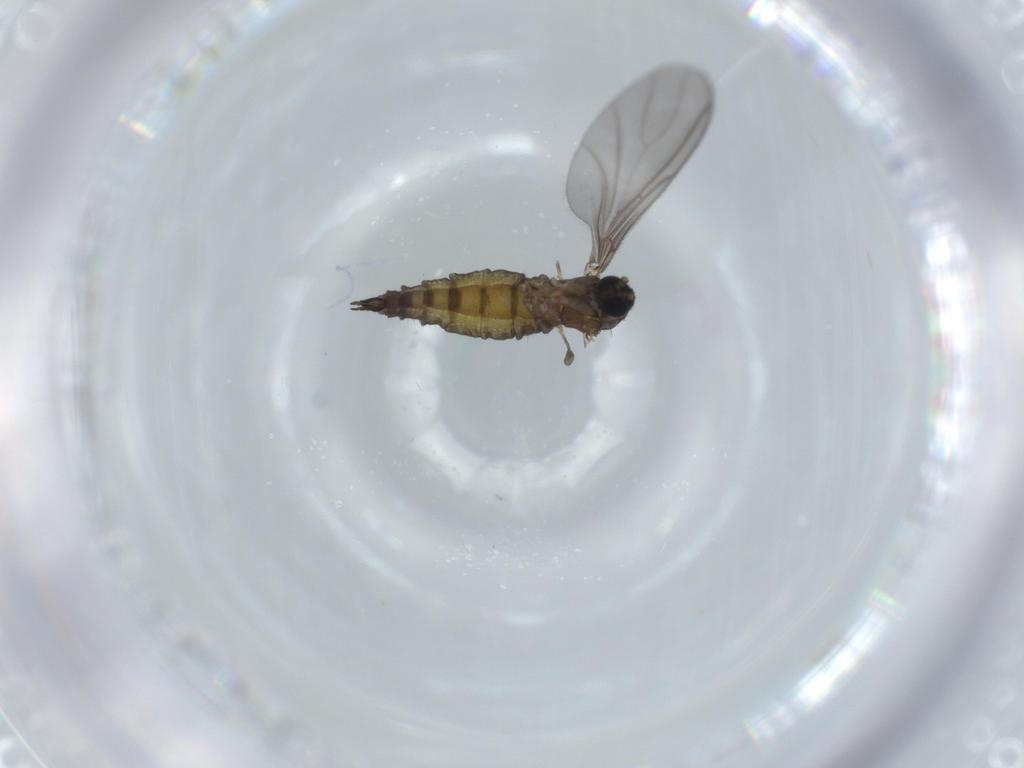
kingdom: Animalia
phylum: Arthropoda
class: Insecta
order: Diptera
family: Sciaridae
